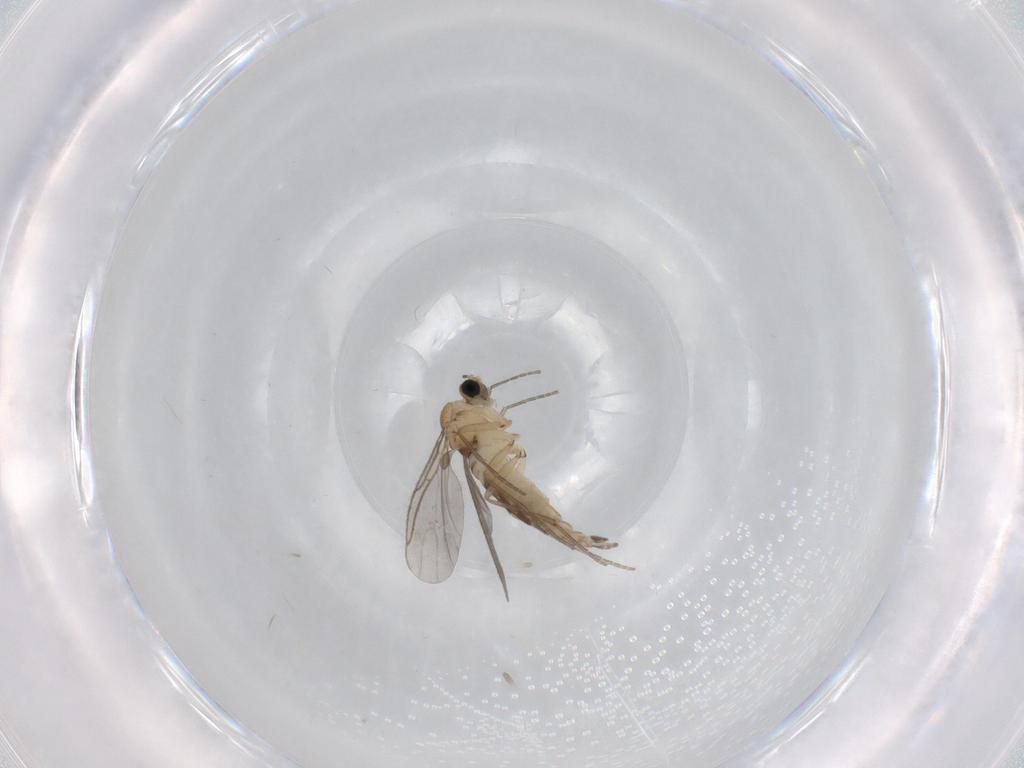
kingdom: Animalia
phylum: Arthropoda
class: Insecta
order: Diptera
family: Sciaridae
